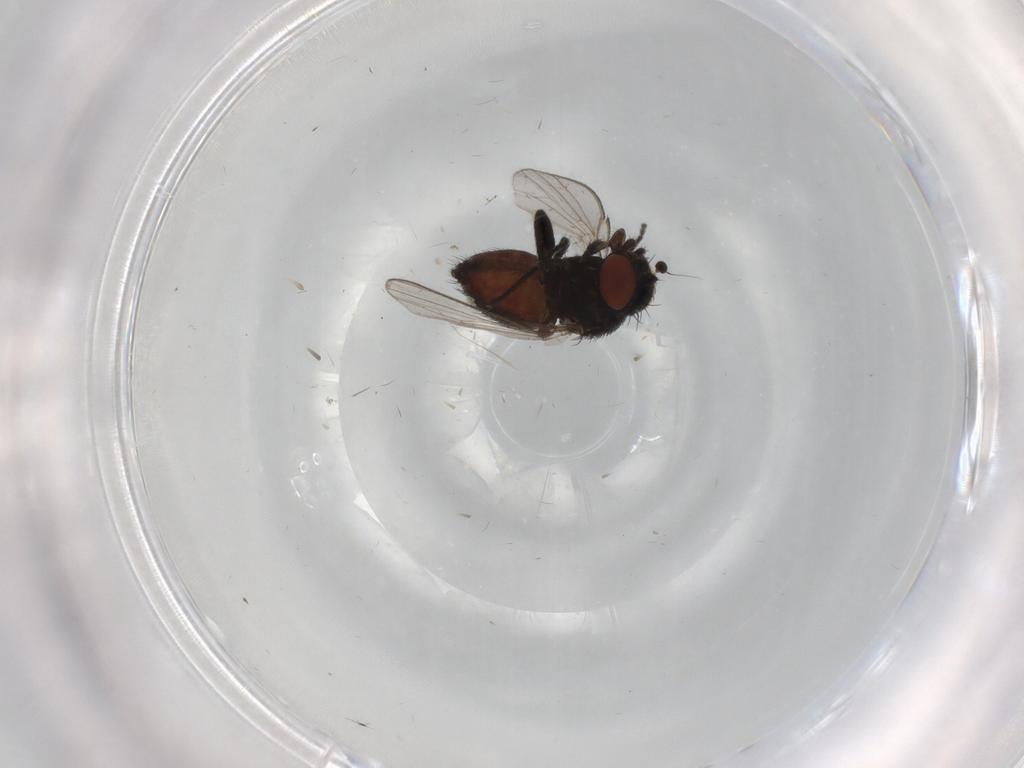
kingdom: Animalia
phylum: Arthropoda
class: Insecta
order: Diptera
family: Milichiidae
